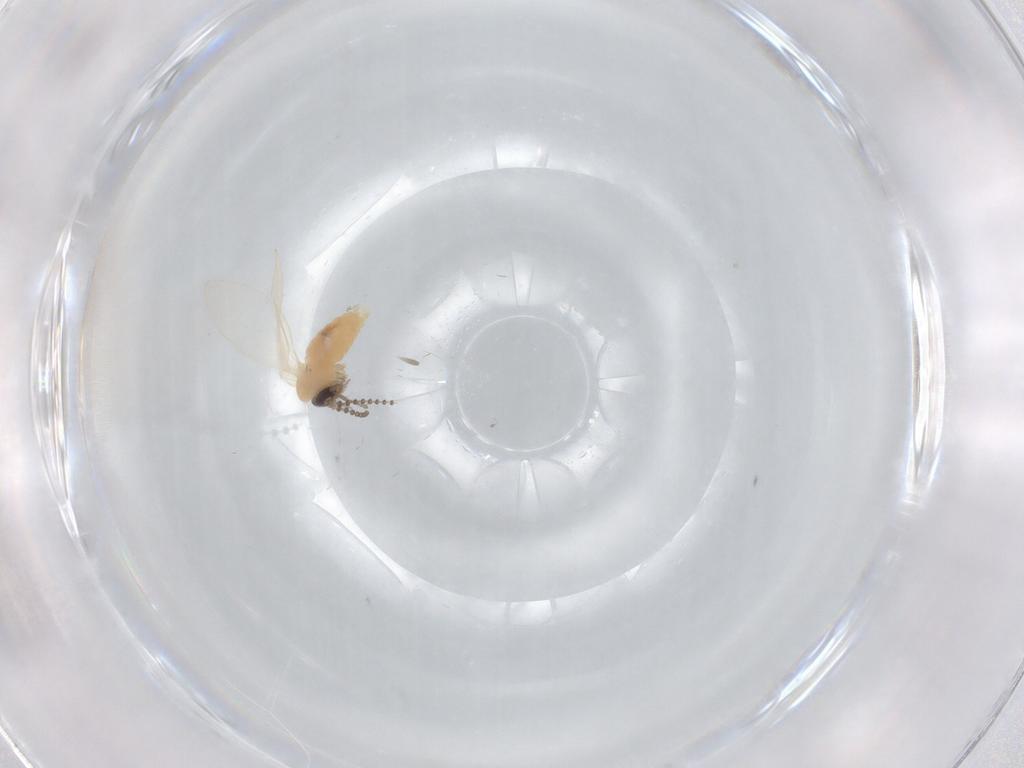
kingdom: Animalia
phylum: Arthropoda
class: Insecta
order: Diptera
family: Psychodidae
